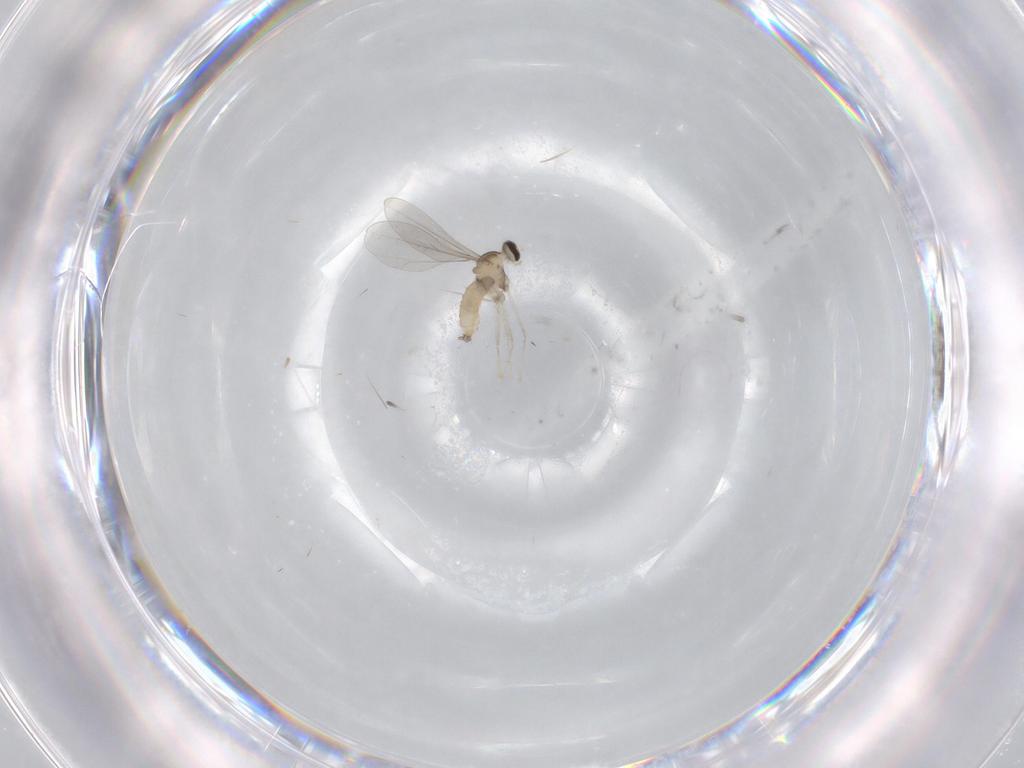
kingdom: Animalia
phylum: Arthropoda
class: Insecta
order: Diptera
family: Cecidomyiidae
